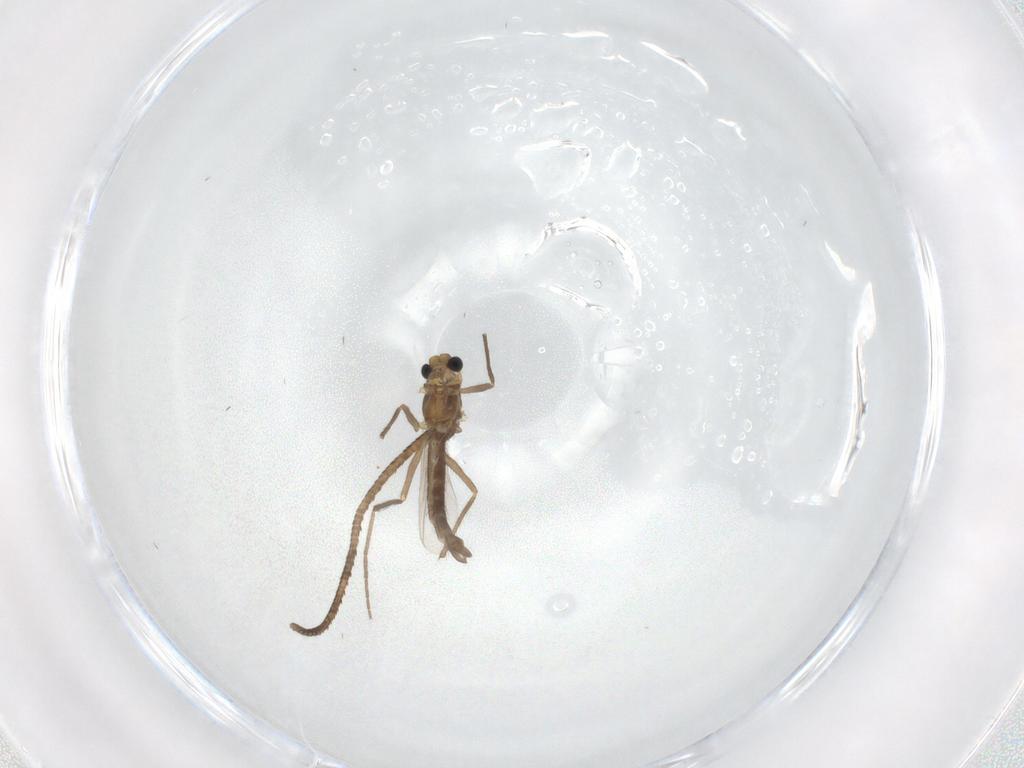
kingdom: Animalia
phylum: Arthropoda
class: Insecta
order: Diptera
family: Chironomidae
